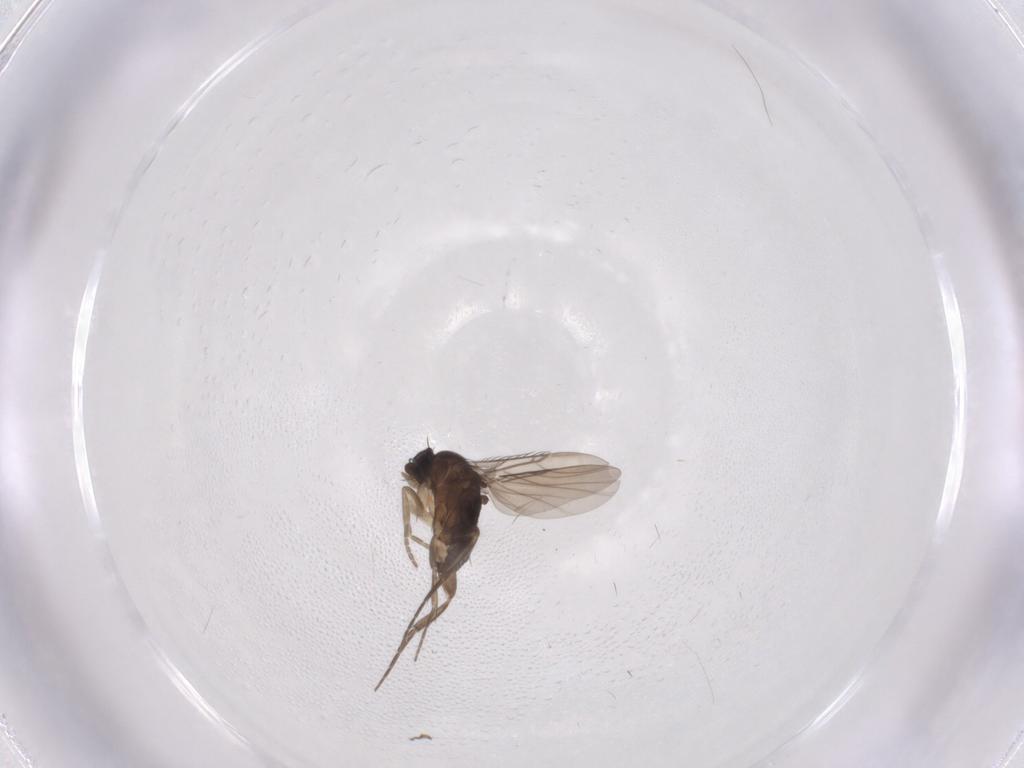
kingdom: Animalia
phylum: Arthropoda
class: Insecta
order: Diptera
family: Phoridae
